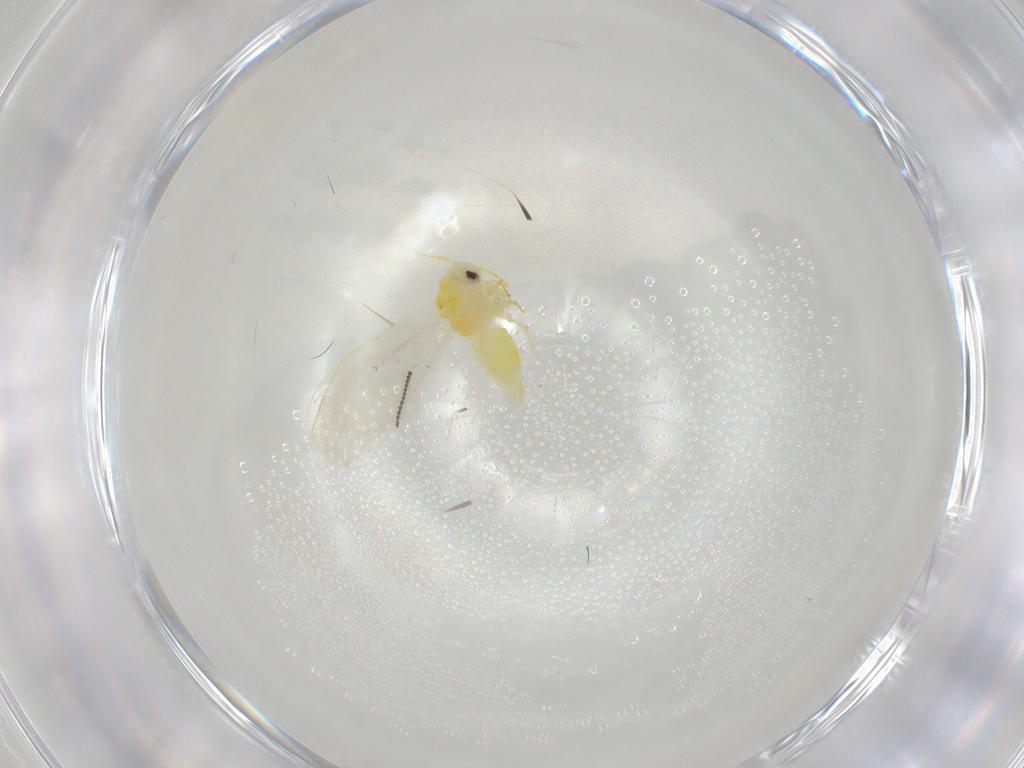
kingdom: Animalia
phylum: Arthropoda
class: Insecta
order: Hemiptera
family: Aleyrodidae
